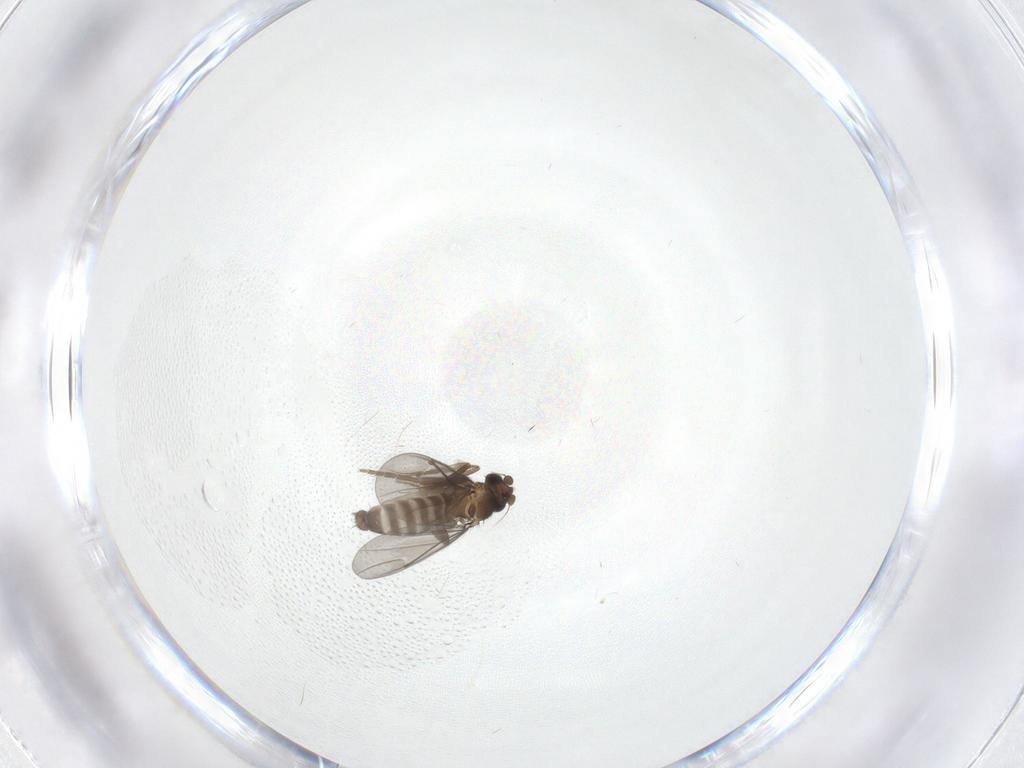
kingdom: Animalia
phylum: Arthropoda
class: Insecta
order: Diptera
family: Phoridae
